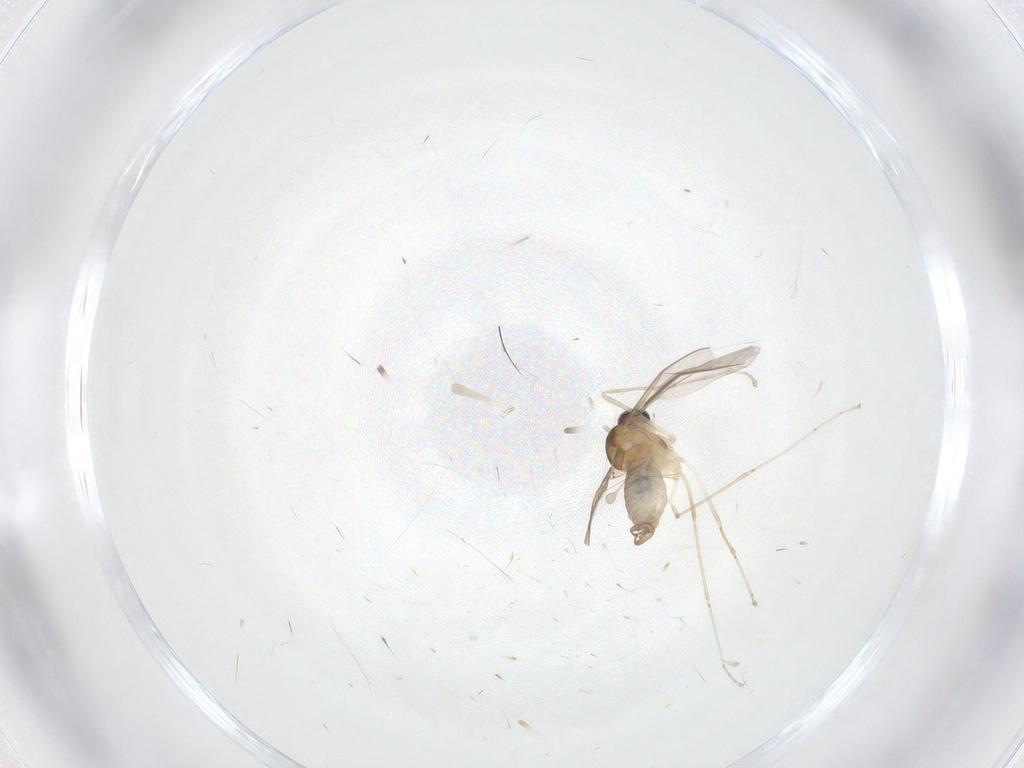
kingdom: Animalia
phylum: Arthropoda
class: Insecta
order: Diptera
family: Cecidomyiidae
